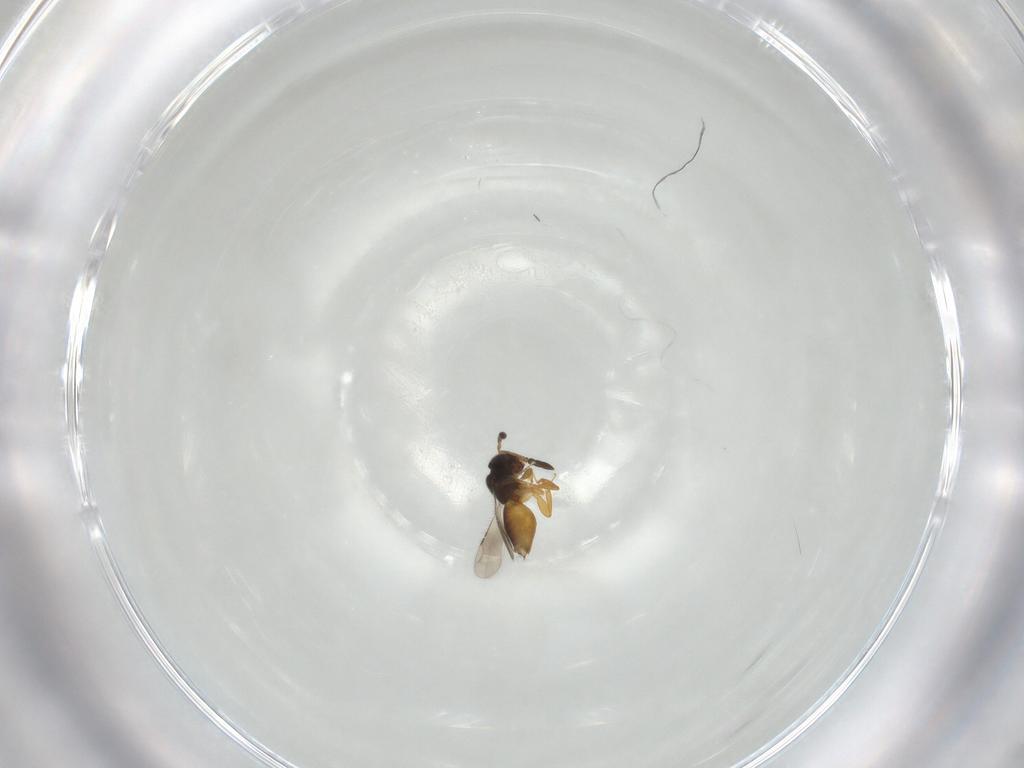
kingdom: Animalia
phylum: Arthropoda
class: Insecta
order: Hymenoptera
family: Ceraphronidae
